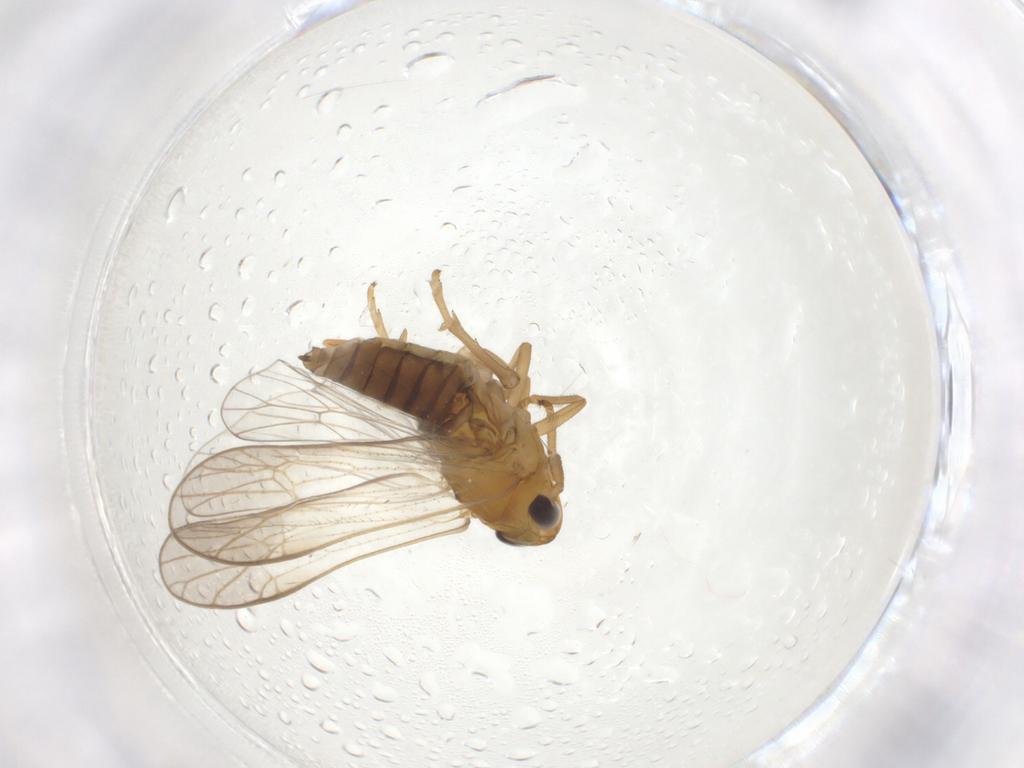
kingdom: Animalia
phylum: Arthropoda
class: Insecta
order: Hemiptera
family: Delphacidae
